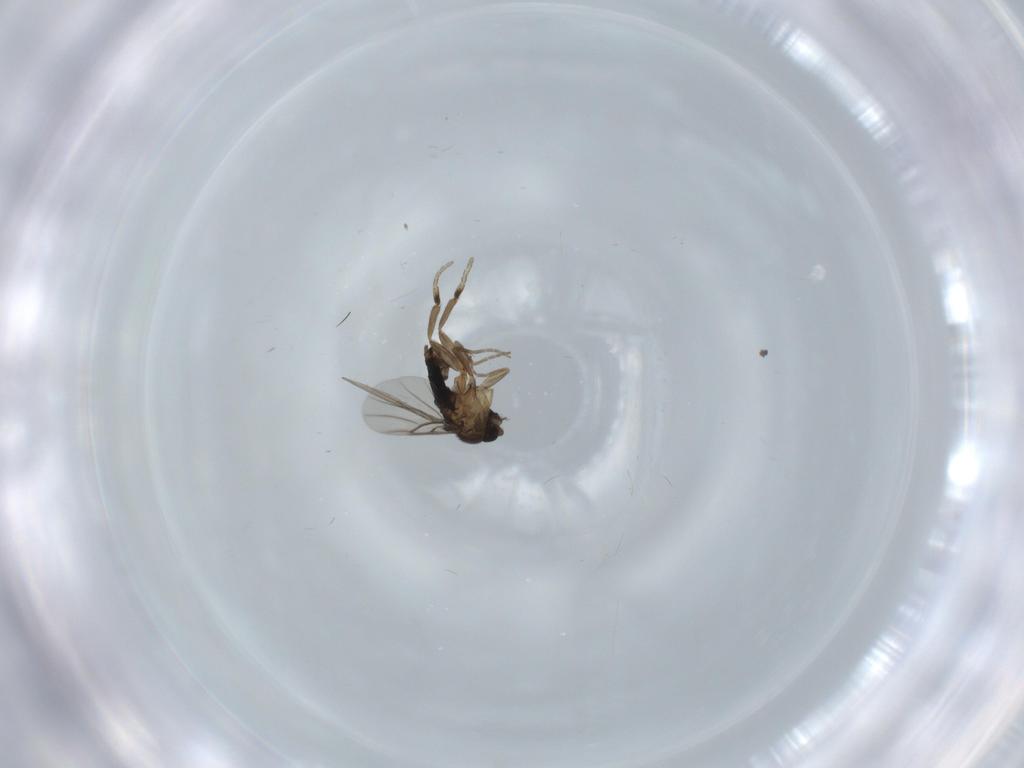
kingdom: Animalia
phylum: Arthropoda
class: Insecta
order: Diptera
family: Phoridae
